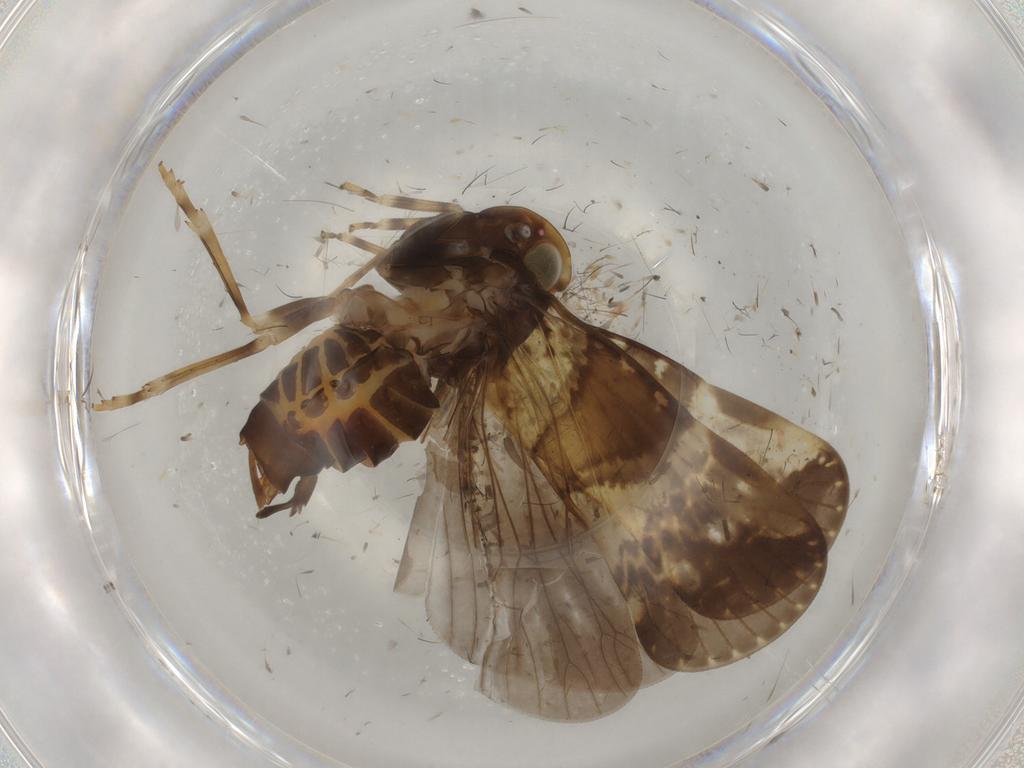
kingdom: Animalia
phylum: Arthropoda
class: Insecta
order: Hemiptera
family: Cixiidae
